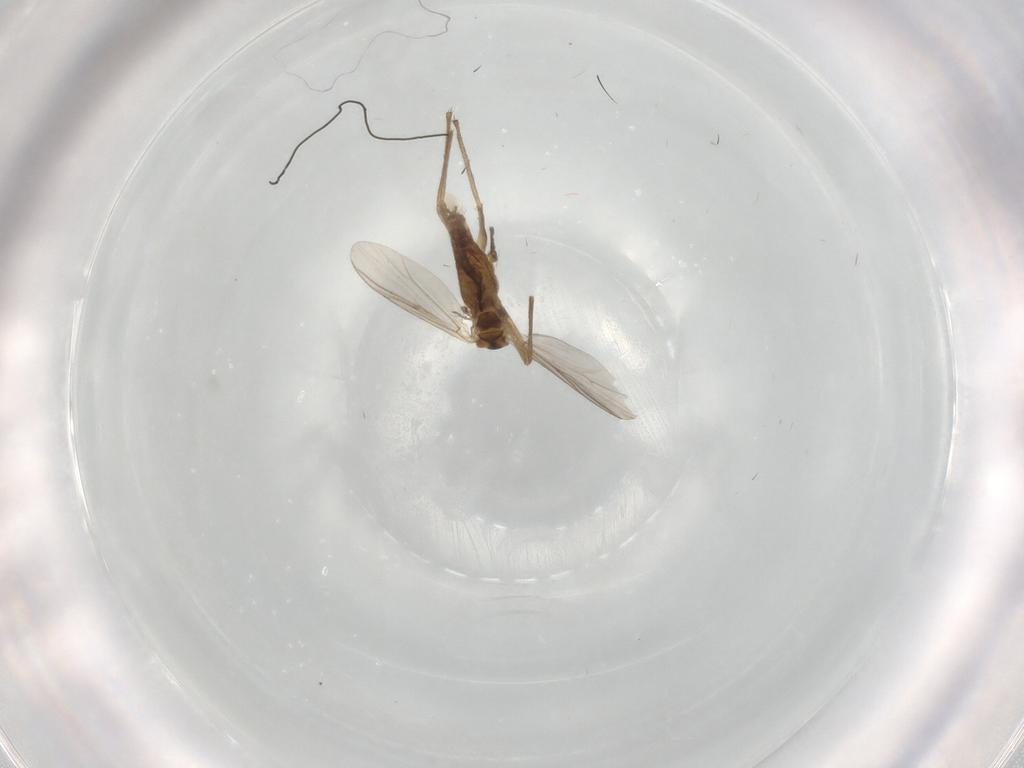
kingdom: Animalia
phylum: Arthropoda
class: Insecta
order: Diptera
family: Chironomidae
